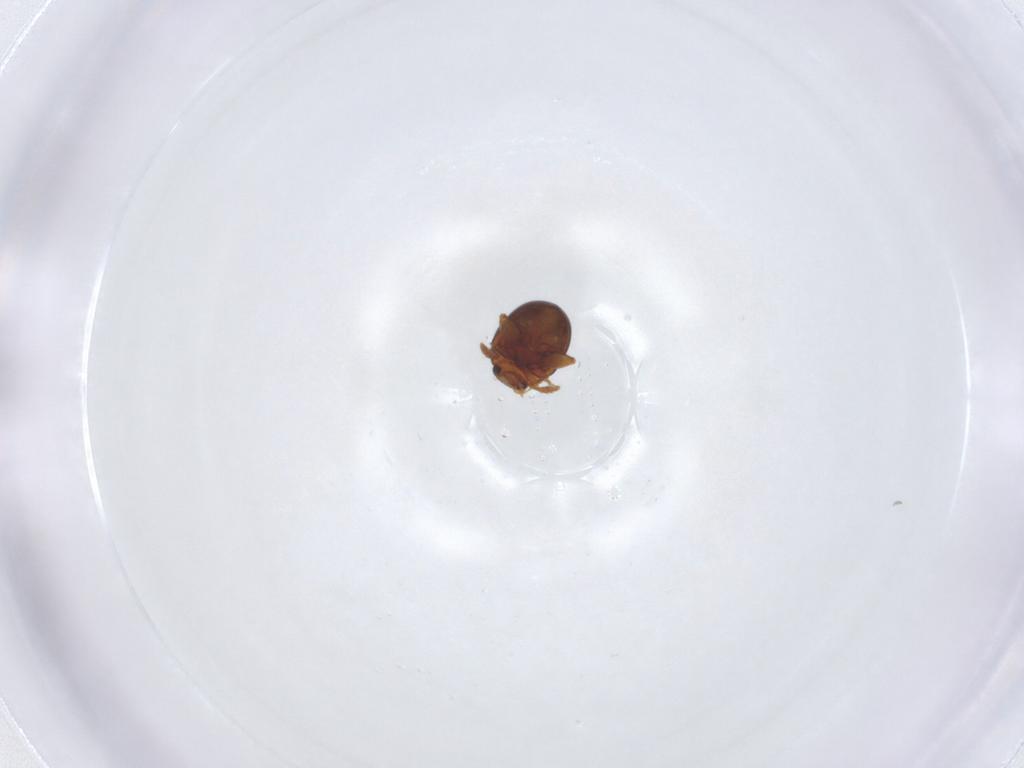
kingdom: Animalia
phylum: Arthropoda
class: Insecta
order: Coleoptera
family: Chrysomelidae
